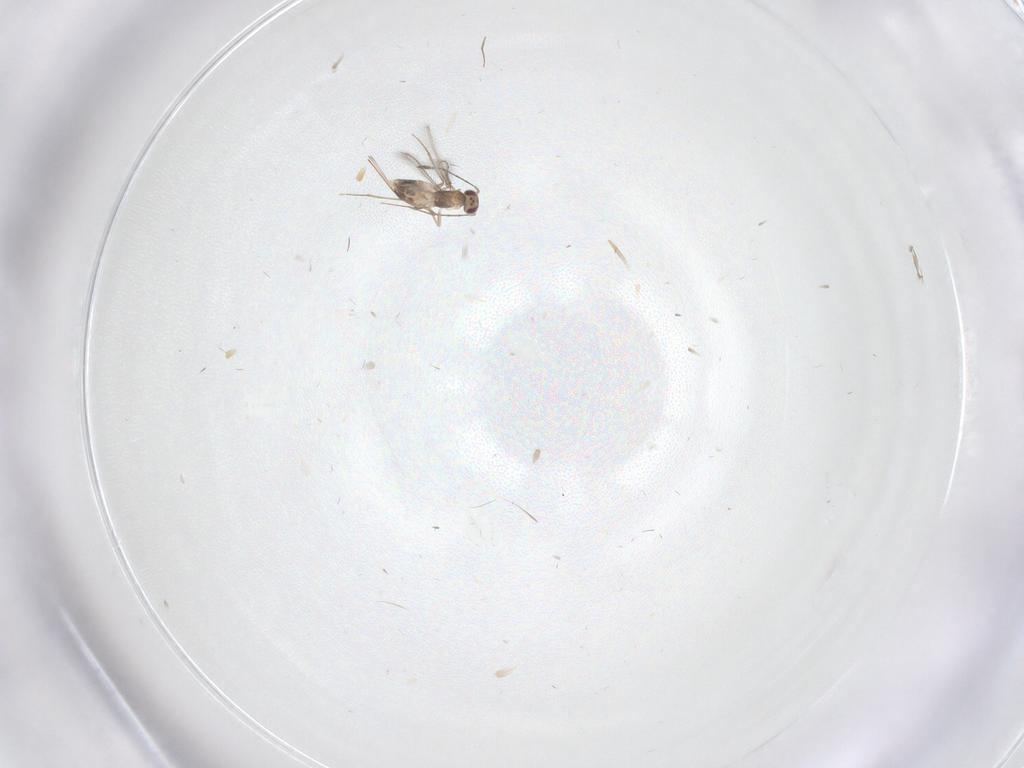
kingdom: Animalia
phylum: Arthropoda
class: Insecta
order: Hymenoptera
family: Mymaridae
